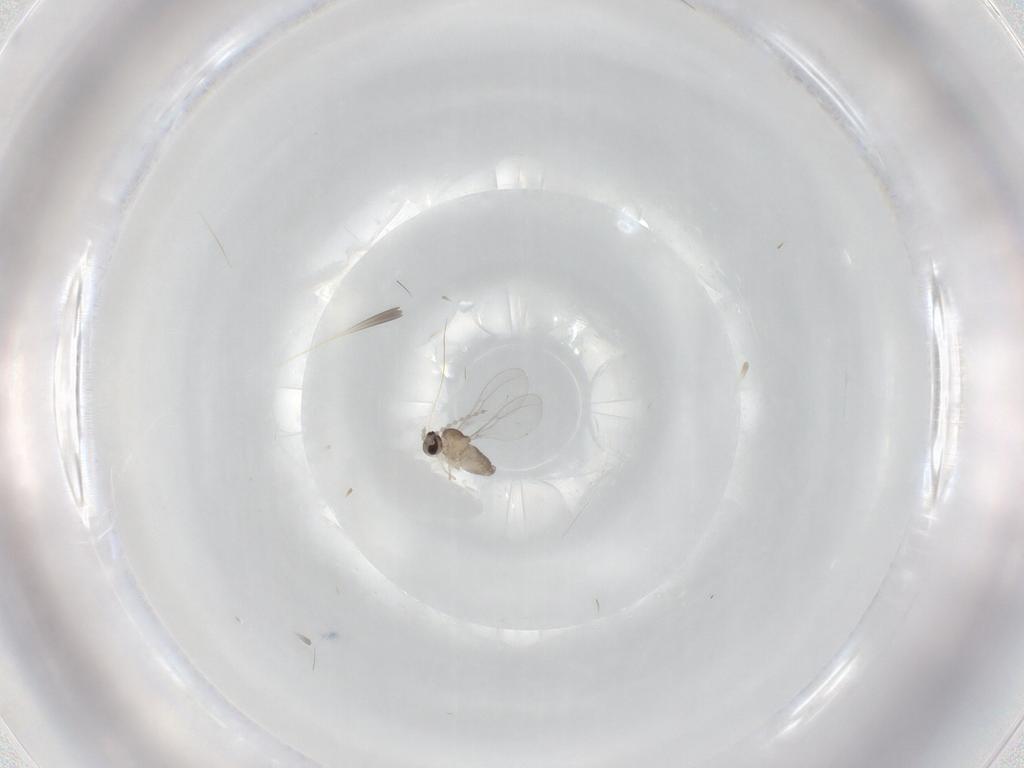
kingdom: Animalia
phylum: Arthropoda
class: Insecta
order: Diptera
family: Cecidomyiidae
